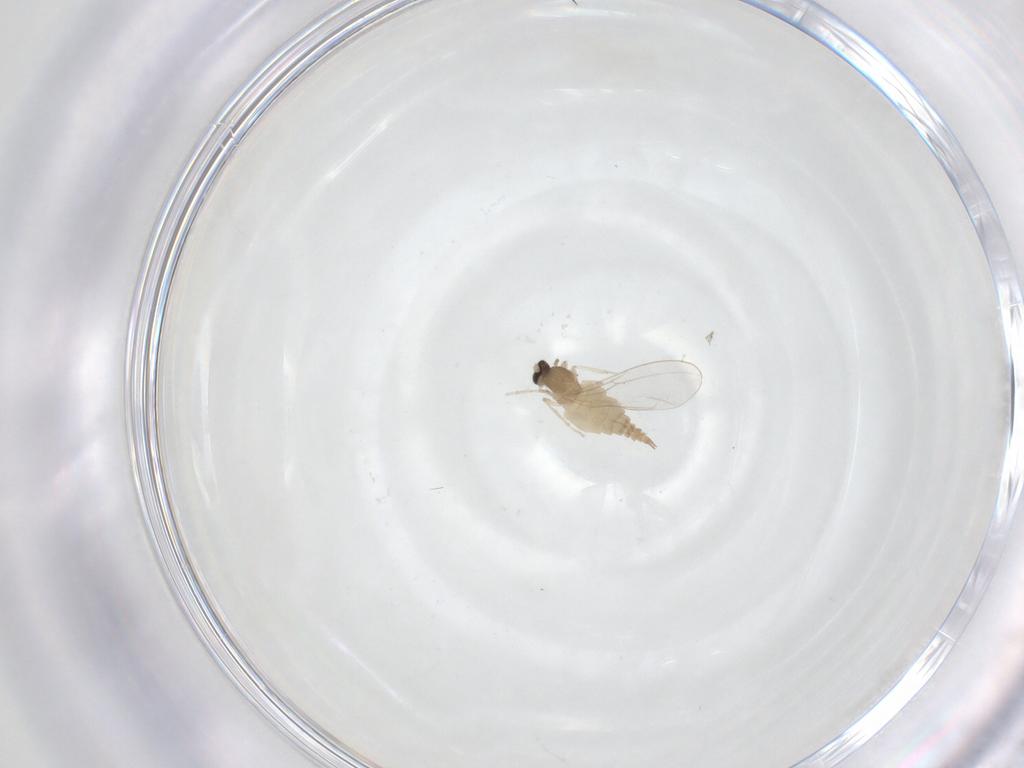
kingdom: Animalia
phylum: Arthropoda
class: Insecta
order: Diptera
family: Cecidomyiidae
